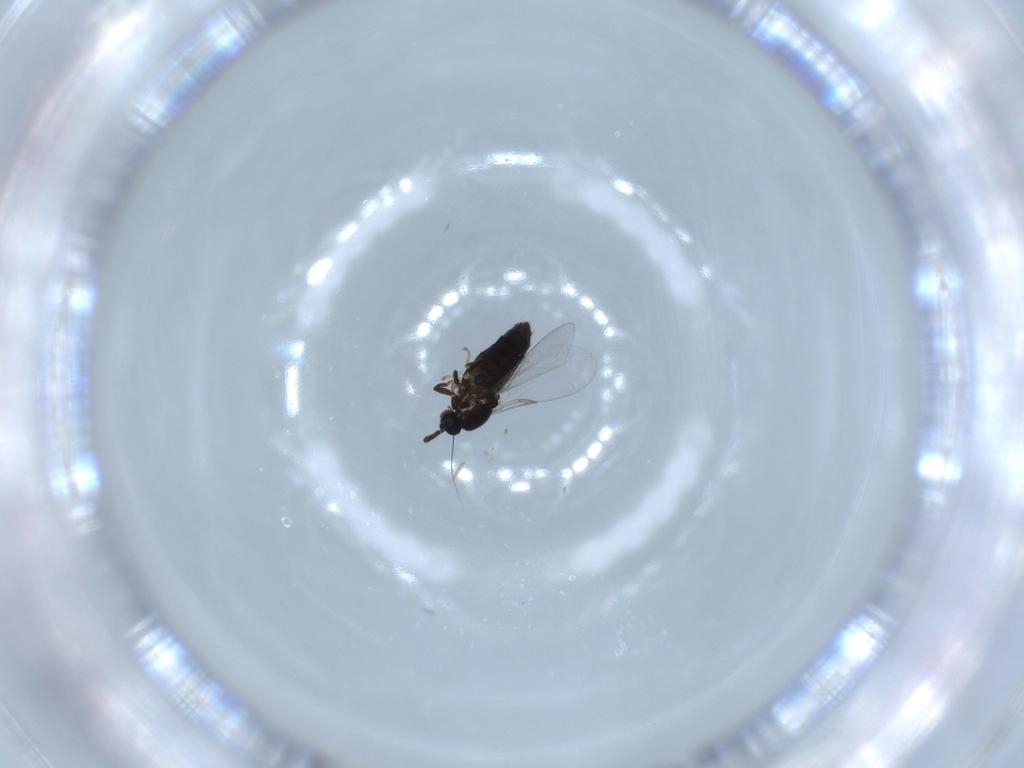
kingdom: Animalia
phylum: Arthropoda
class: Insecta
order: Diptera
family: Scatopsidae
